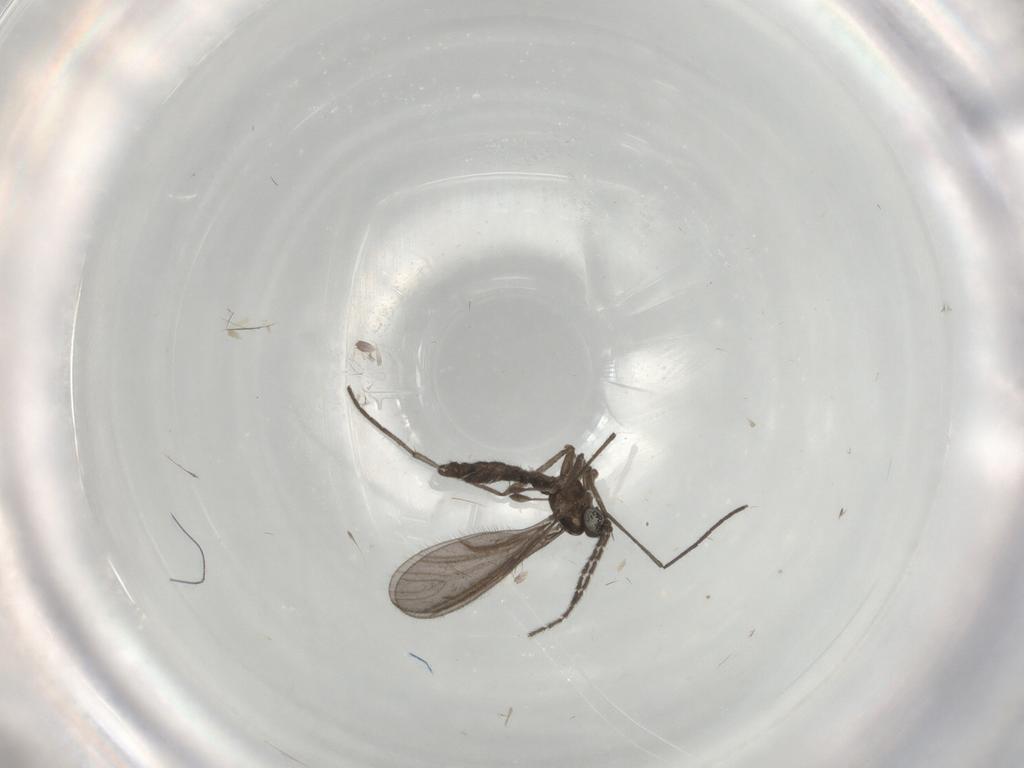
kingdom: Animalia
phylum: Arthropoda
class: Insecta
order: Diptera
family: Sciaridae
